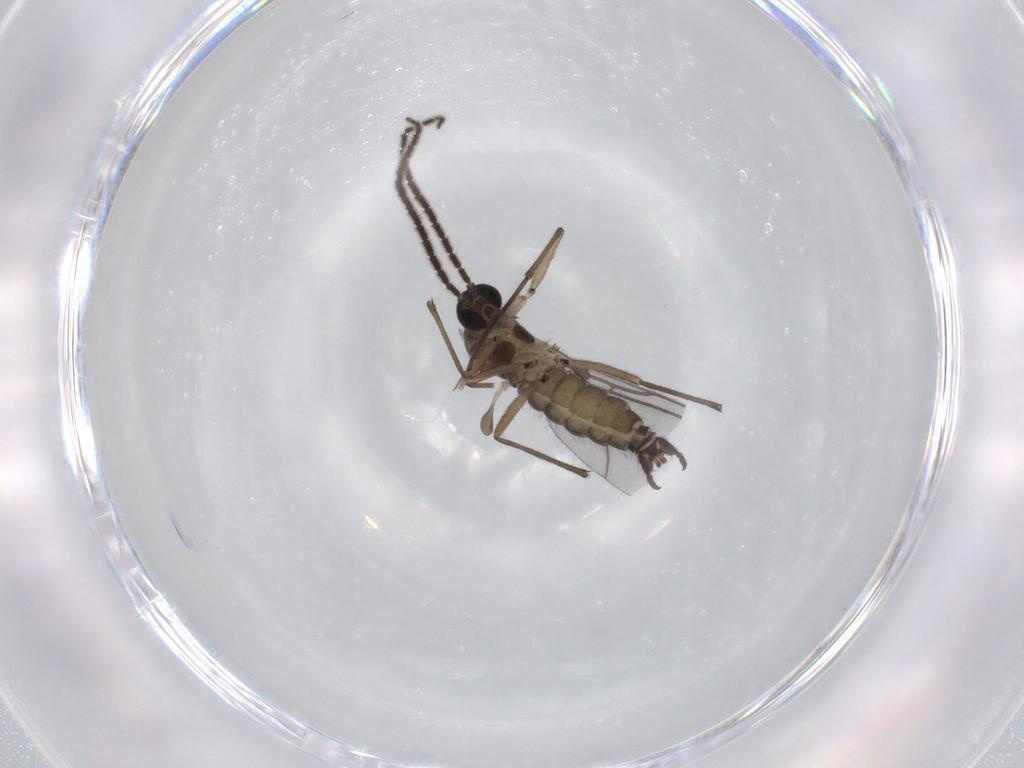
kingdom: Animalia
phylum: Arthropoda
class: Insecta
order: Diptera
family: Sciaridae
